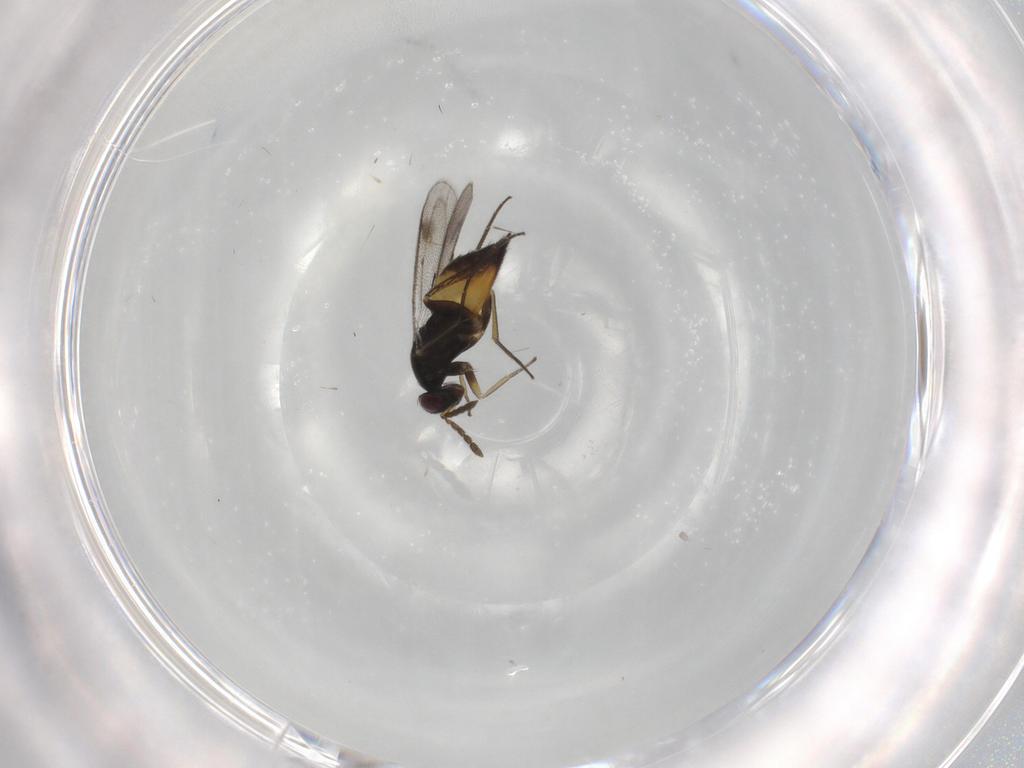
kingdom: Animalia
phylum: Arthropoda
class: Insecta
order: Hymenoptera
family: Eulophidae
